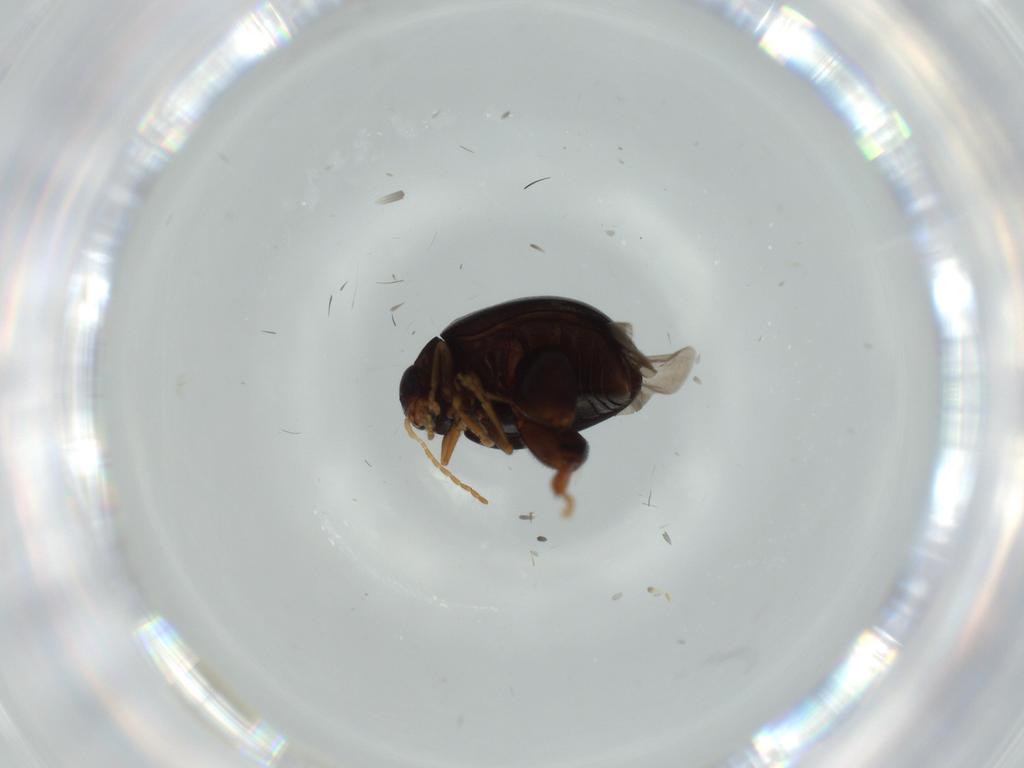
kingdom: Animalia
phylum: Arthropoda
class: Insecta
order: Coleoptera
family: Chrysomelidae
